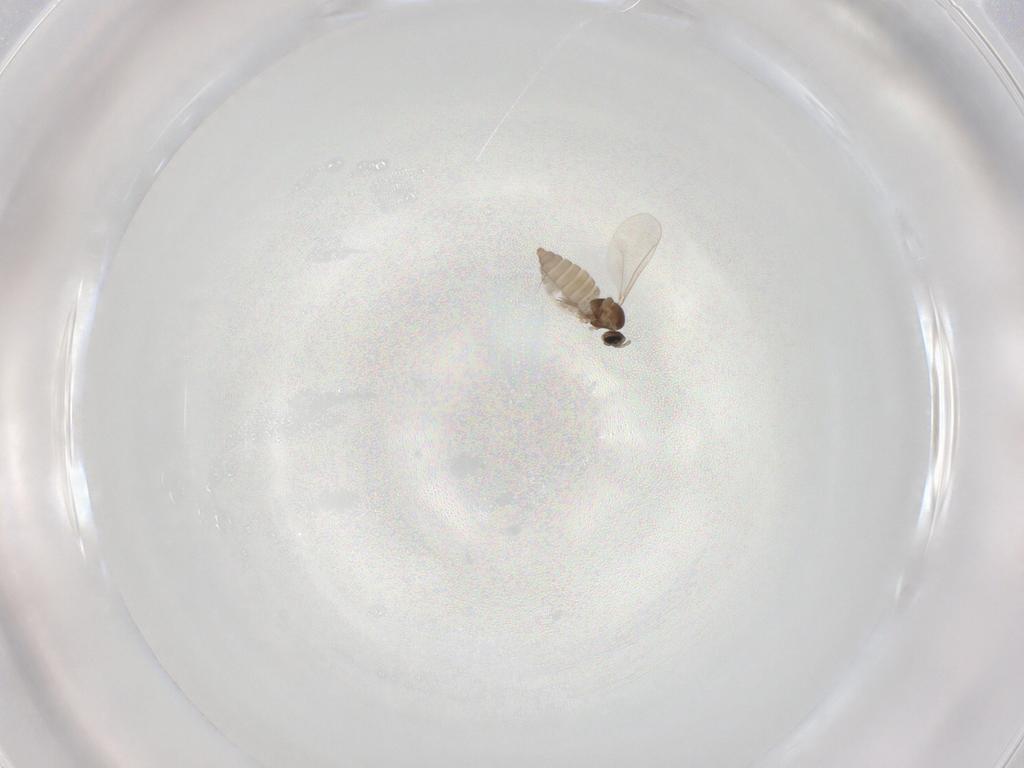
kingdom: Animalia
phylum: Arthropoda
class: Insecta
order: Diptera
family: Cecidomyiidae
